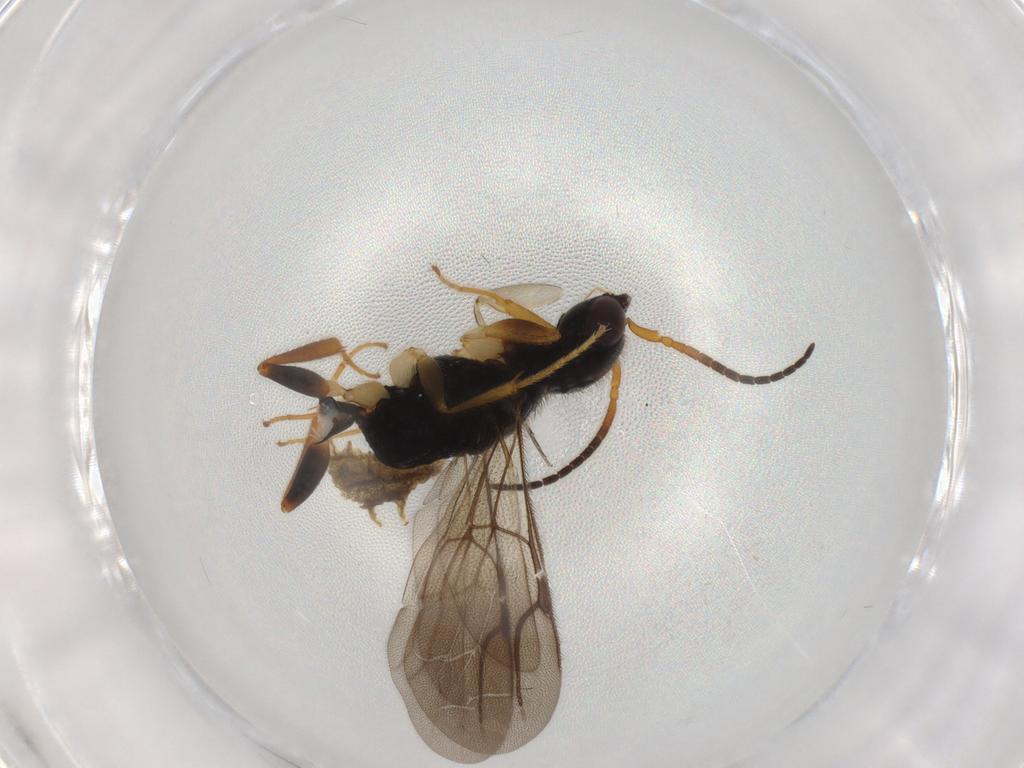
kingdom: Animalia
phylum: Arthropoda
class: Insecta
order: Hymenoptera
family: Bethylidae
